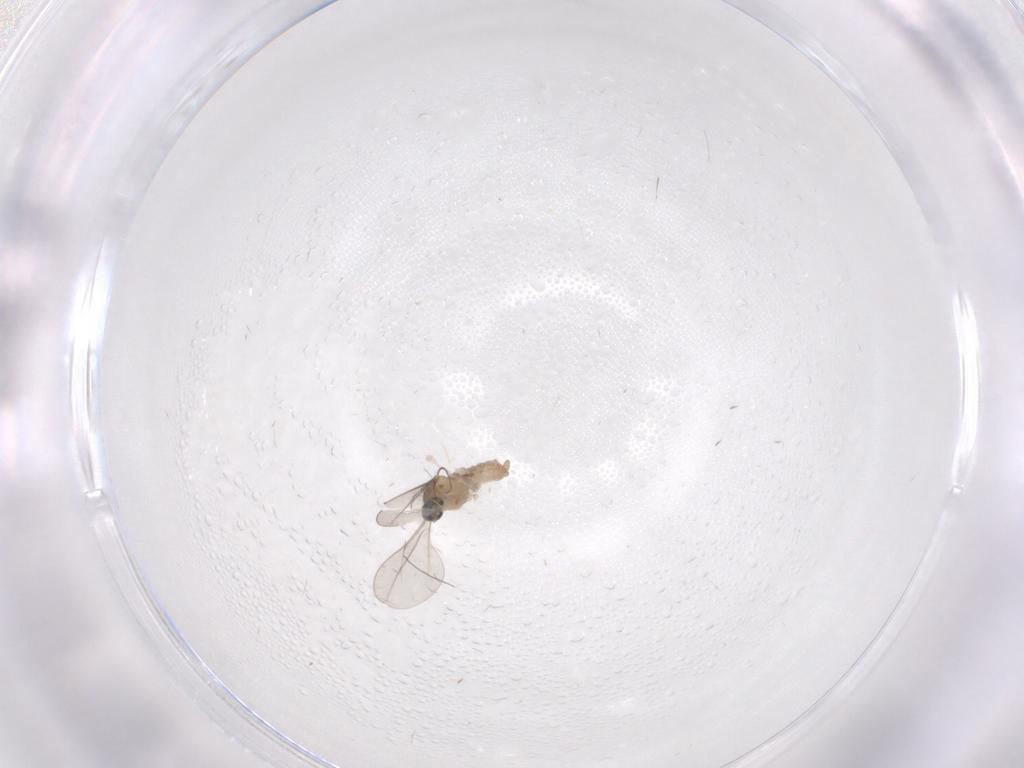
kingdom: Animalia
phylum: Arthropoda
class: Insecta
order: Diptera
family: Cecidomyiidae
